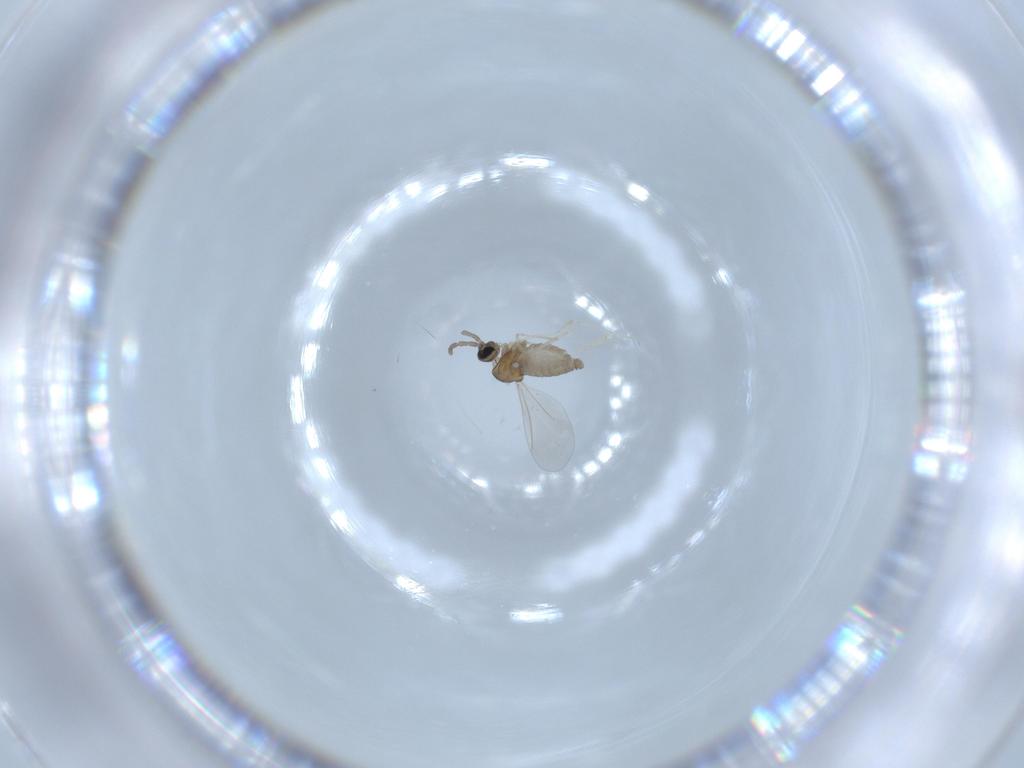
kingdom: Animalia
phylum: Arthropoda
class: Insecta
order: Diptera
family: Cecidomyiidae
